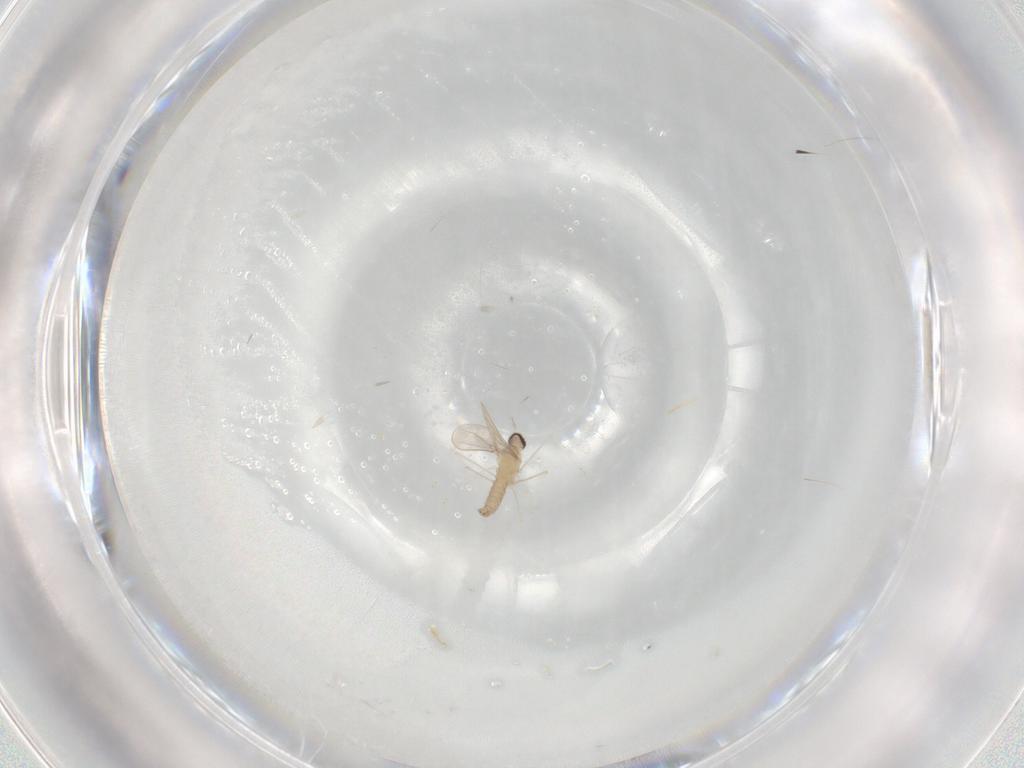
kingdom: Animalia
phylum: Arthropoda
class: Insecta
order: Diptera
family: Cecidomyiidae
